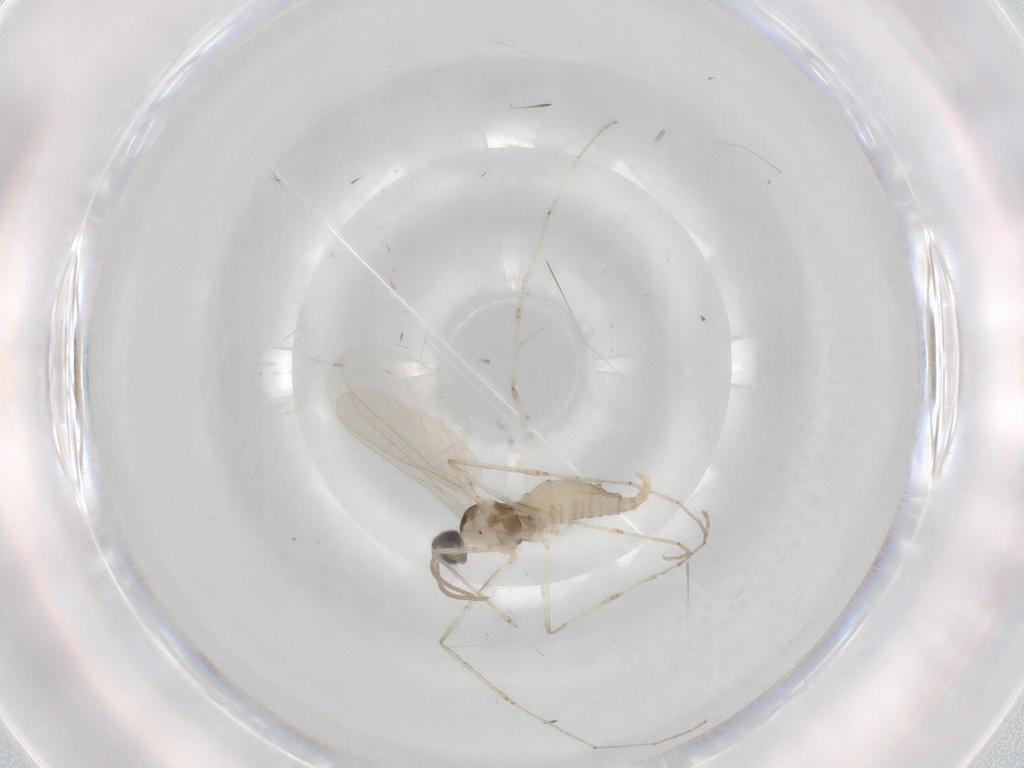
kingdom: Animalia
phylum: Arthropoda
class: Insecta
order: Diptera
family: Cecidomyiidae
